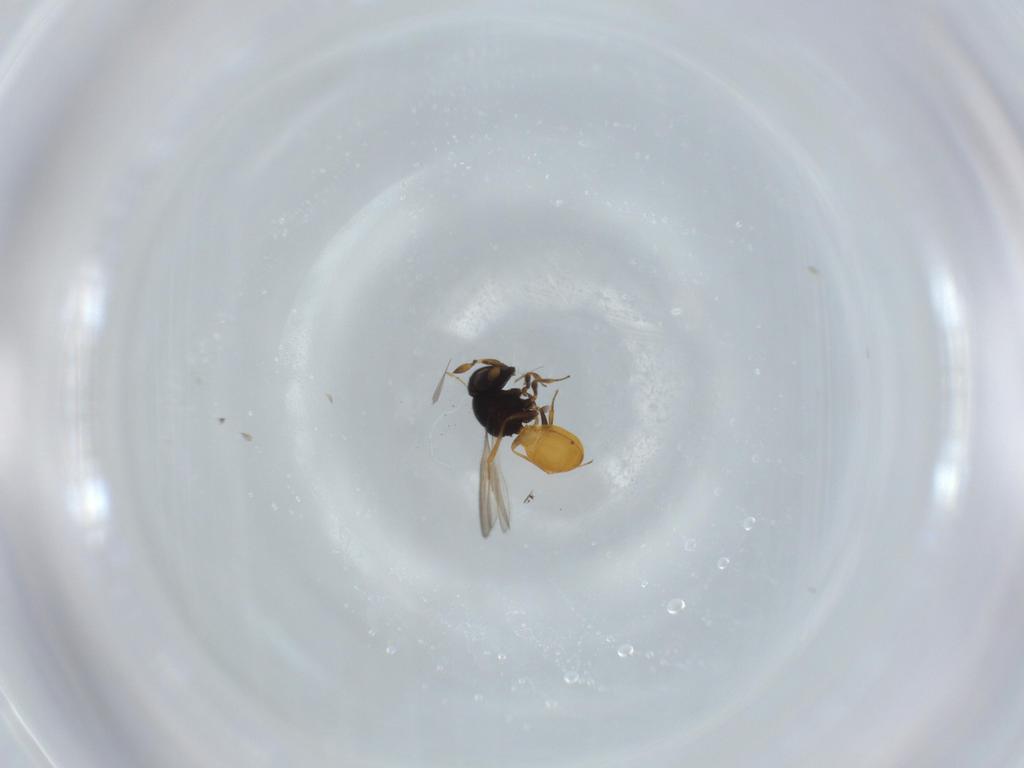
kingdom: Animalia
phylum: Arthropoda
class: Insecta
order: Hymenoptera
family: Scelionidae
